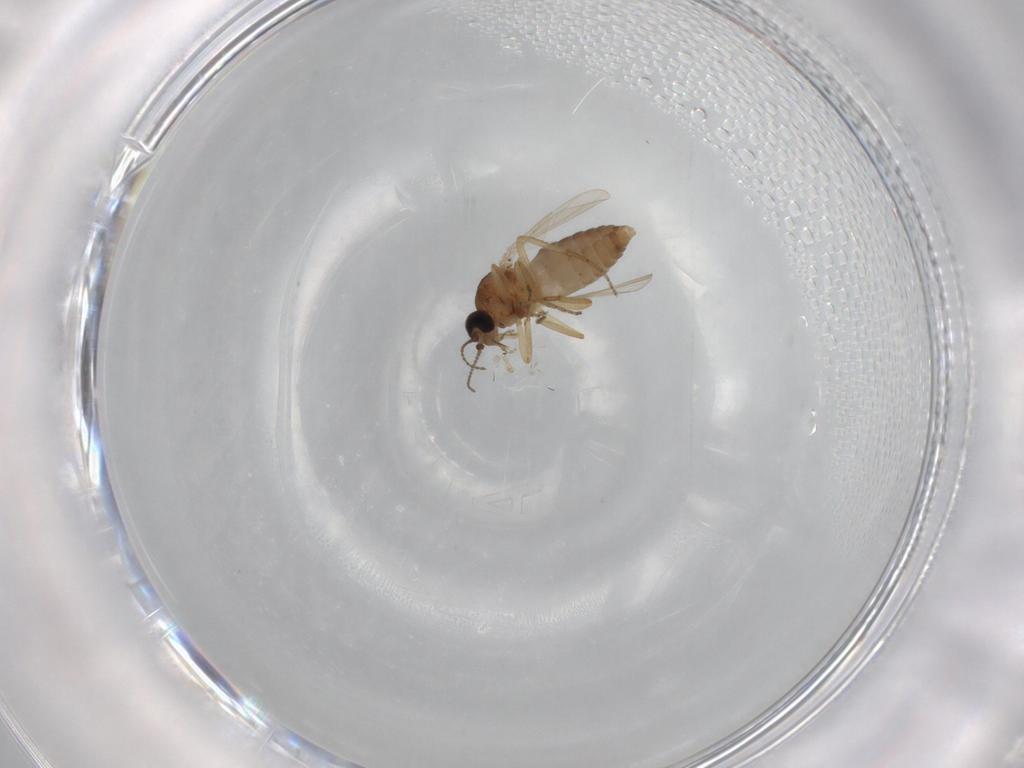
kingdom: Animalia
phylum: Arthropoda
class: Insecta
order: Diptera
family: Ceratopogonidae
